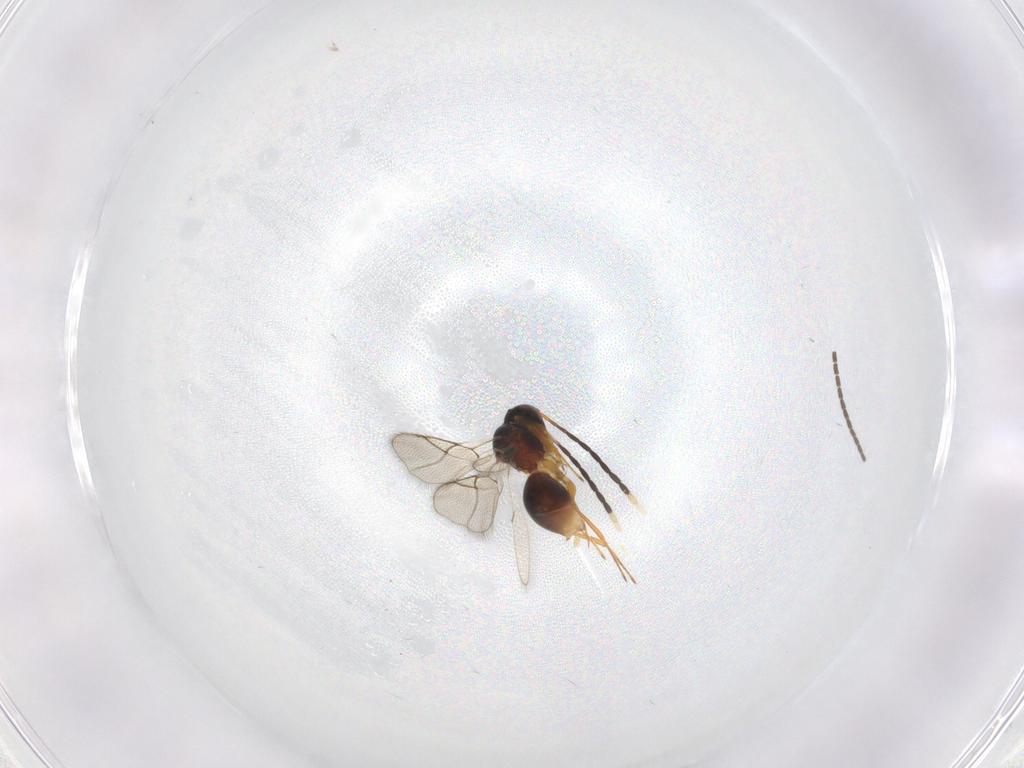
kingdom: Animalia
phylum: Arthropoda
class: Insecta
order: Hymenoptera
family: Figitidae
